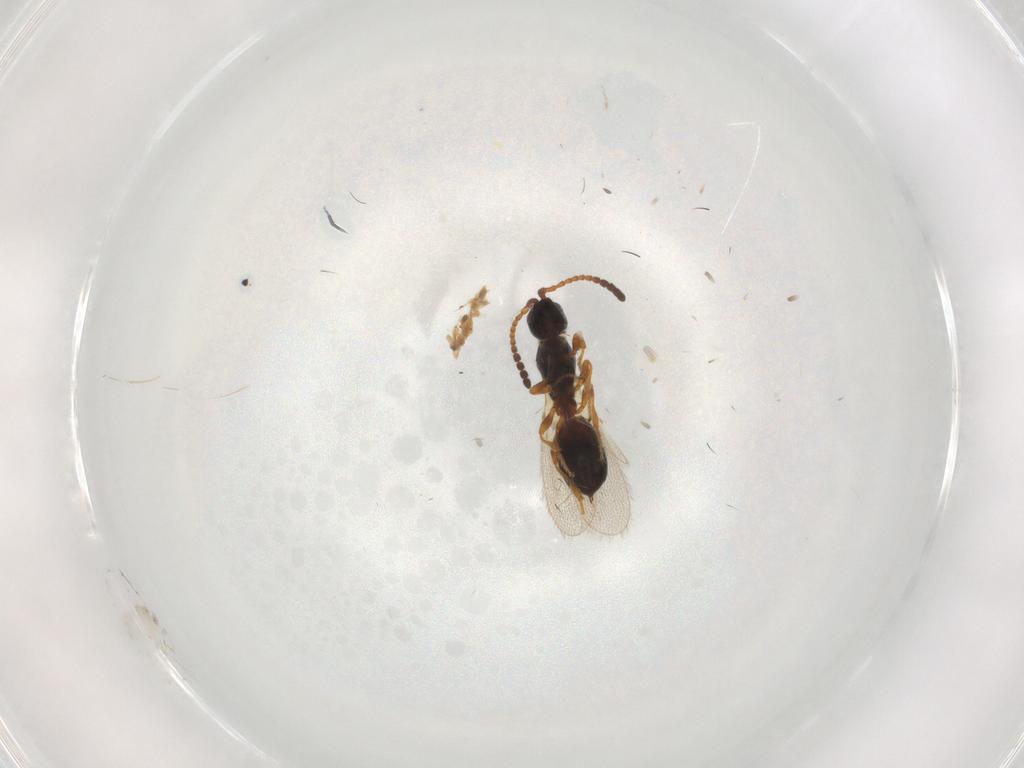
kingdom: Animalia
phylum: Arthropoda
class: Insecta
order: Hymenoptera
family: Diapriidae
